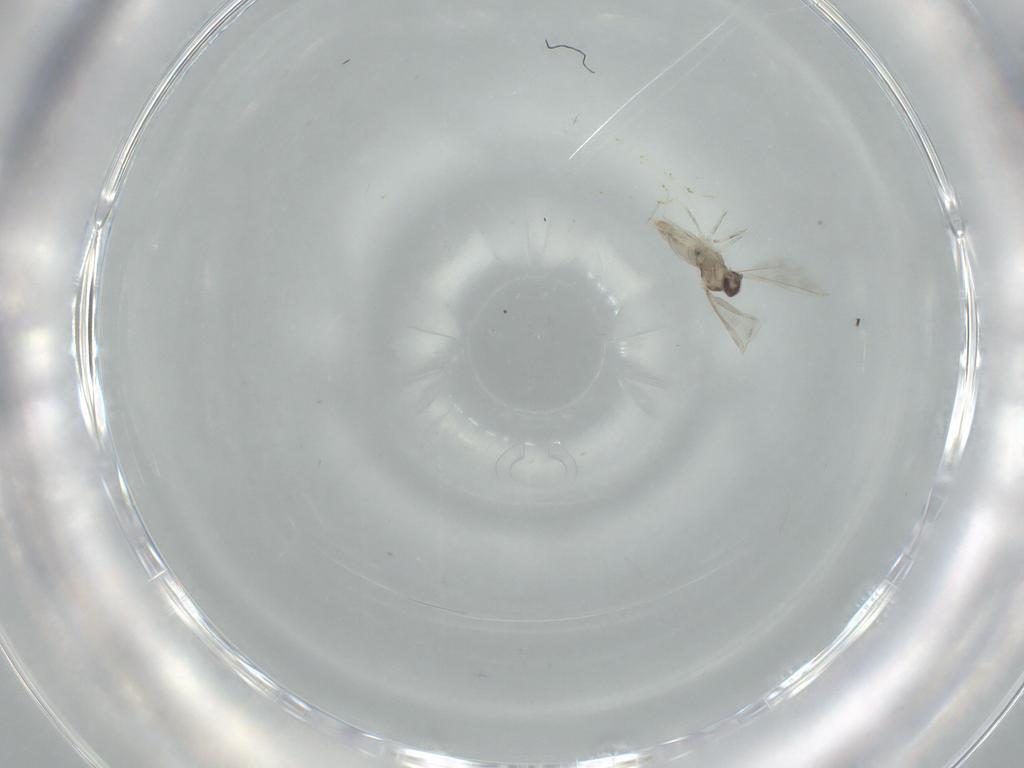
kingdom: Animalia
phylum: Arthropoda
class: Insecta
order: Diptera
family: Cecidomyiidae
